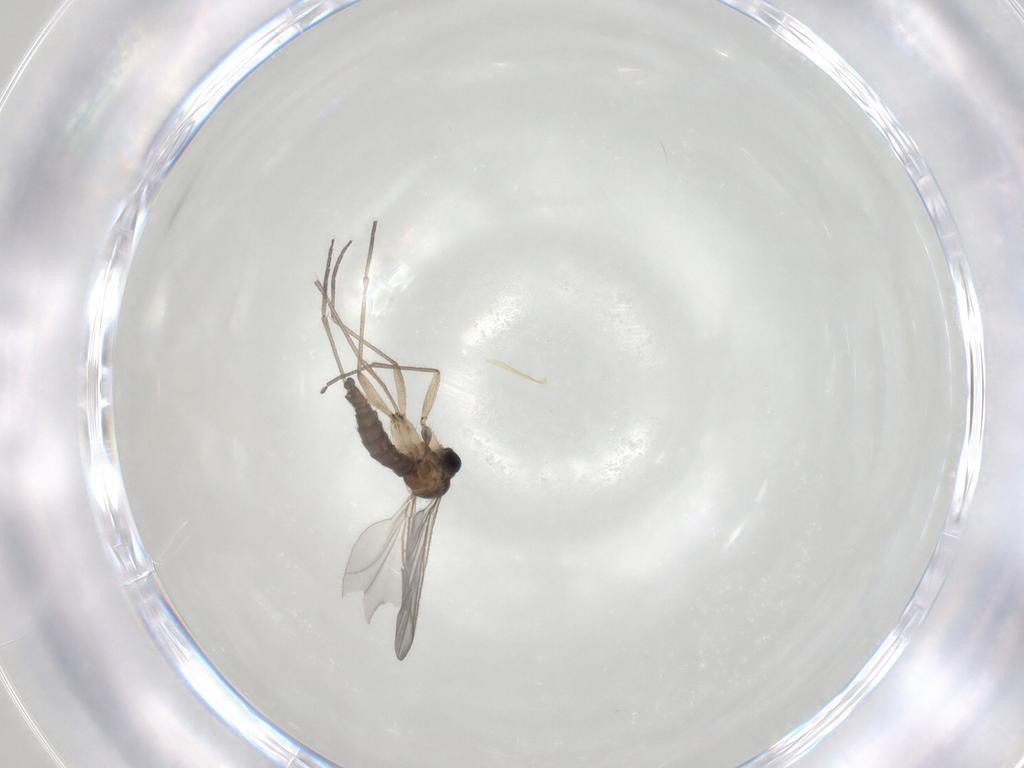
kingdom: Animalia
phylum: Arthropoda
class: Insecta
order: Diptera
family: Sciaridae
